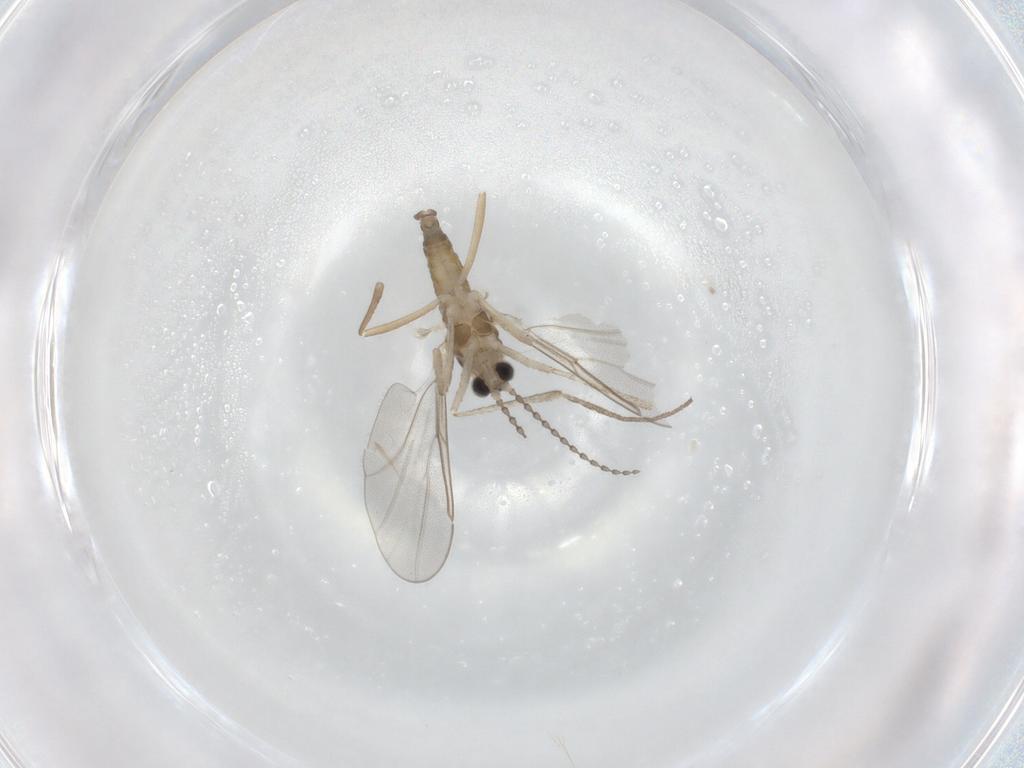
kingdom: Animalia
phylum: Arthropoda
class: Insecta
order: Diptera
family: Cecidomyiidae
